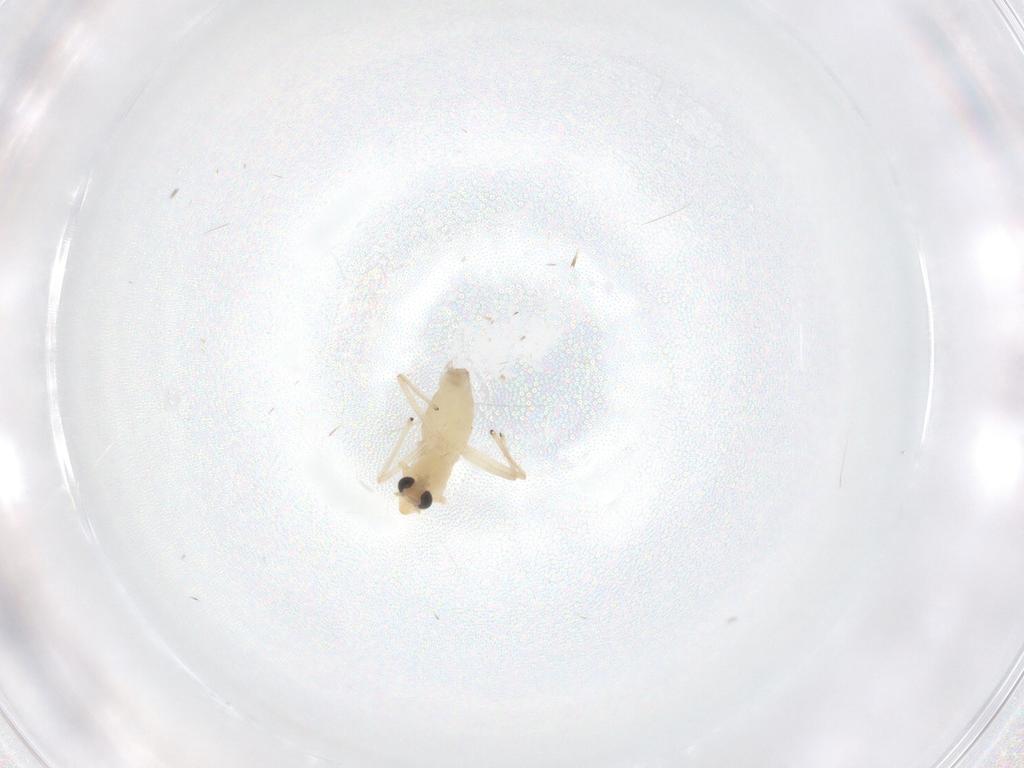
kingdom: Animalia
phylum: Arthropoda
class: Insecta
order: Diptera
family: Chironomidae
